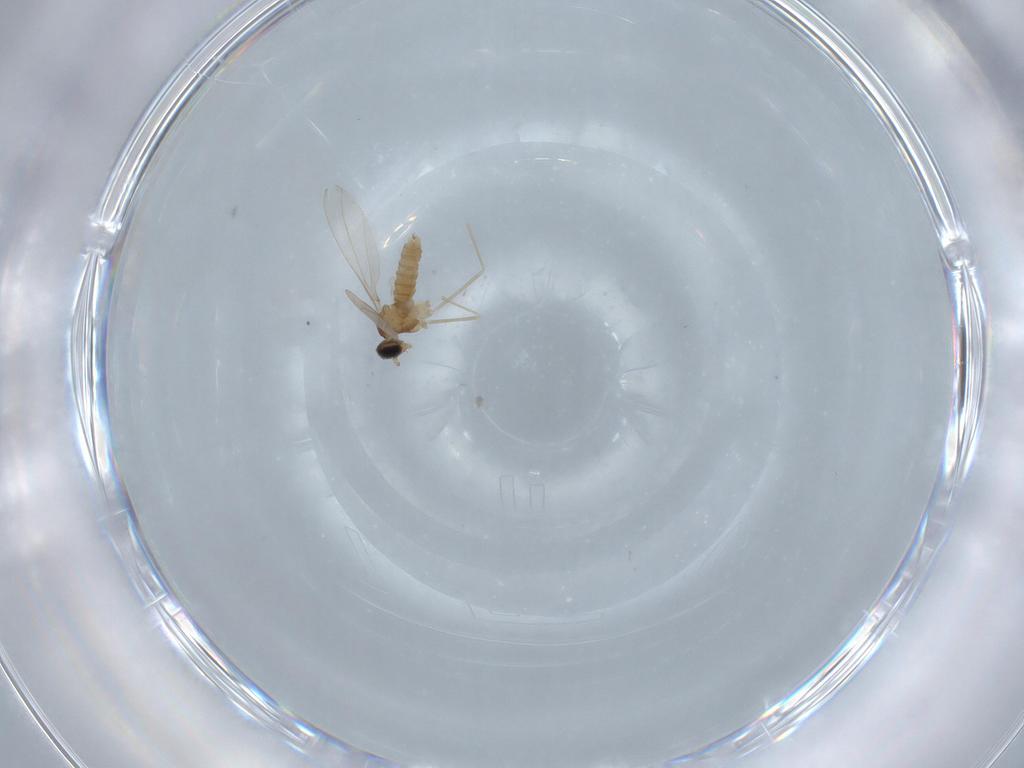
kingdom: Animalia
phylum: Arthropoda
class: Insecta
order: Diptera
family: Cecidomyiidae
